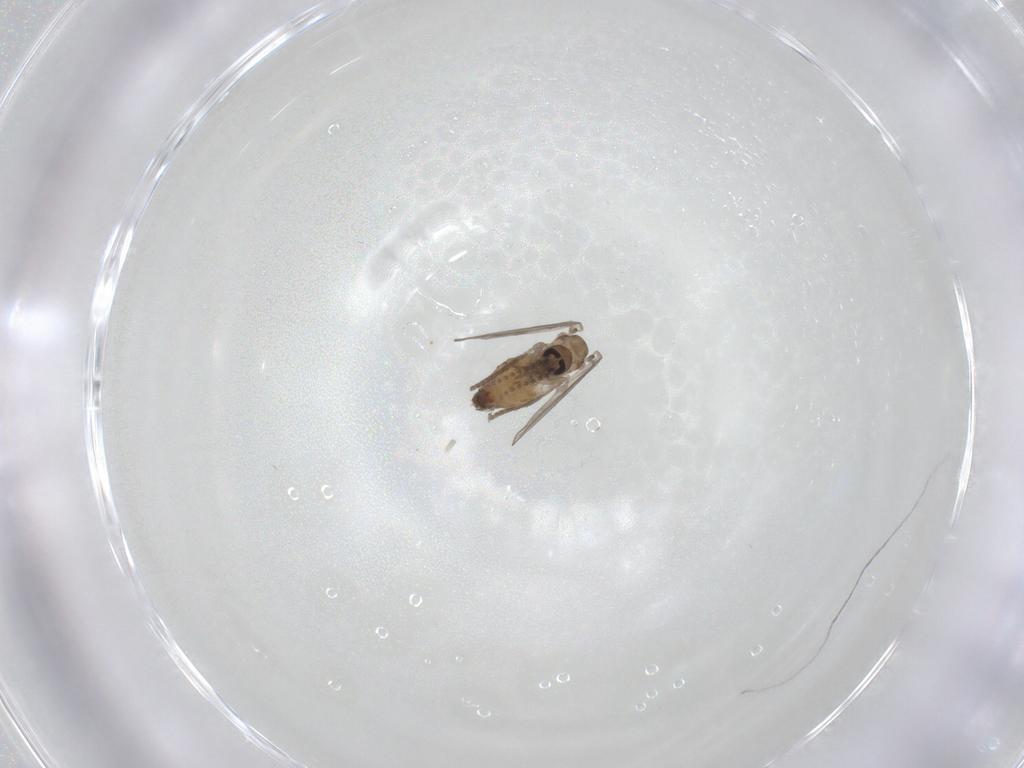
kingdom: Animalia
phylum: Arthropoda
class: Insecta
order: Diptera
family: Psychodidae
